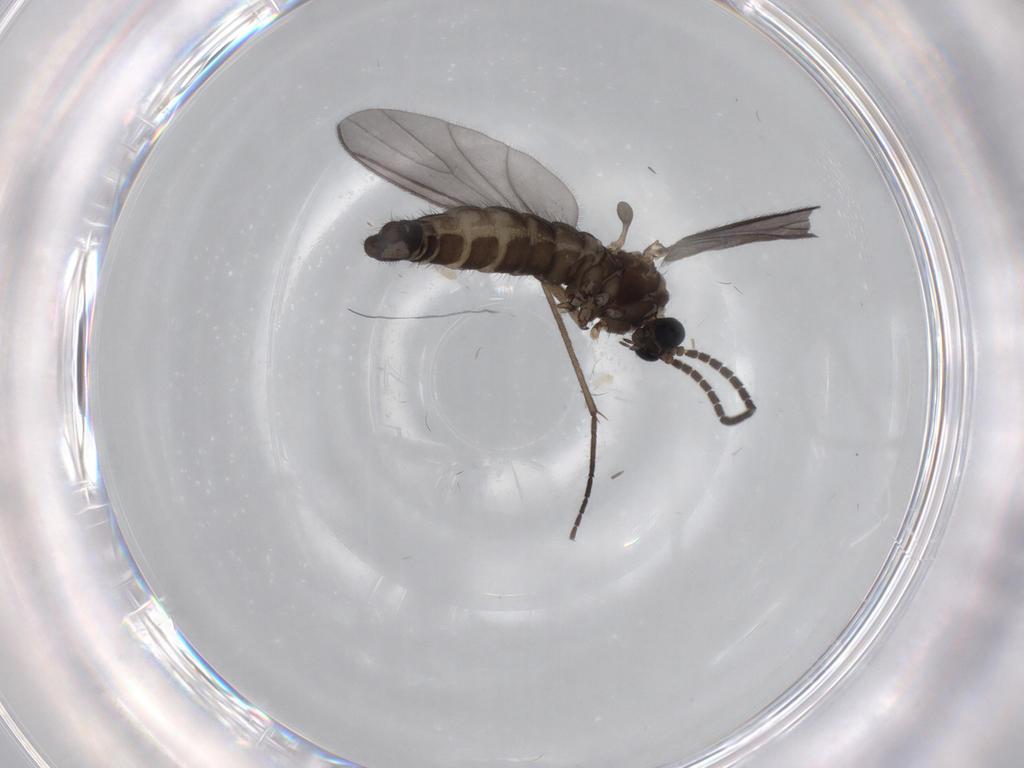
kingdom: Animalia
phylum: Arthropoda
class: Insecta
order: Diptera
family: Sciaridae
